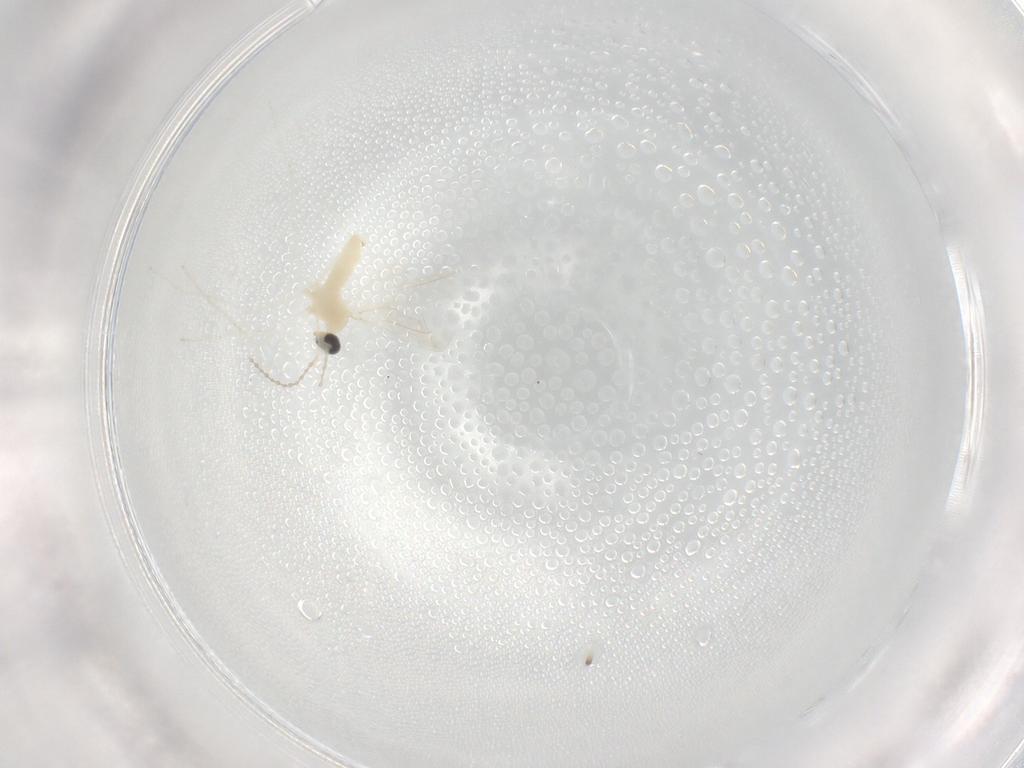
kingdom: Animalia
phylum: Arthropoda
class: Insecta
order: Diptera
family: Cecidomyiidae
